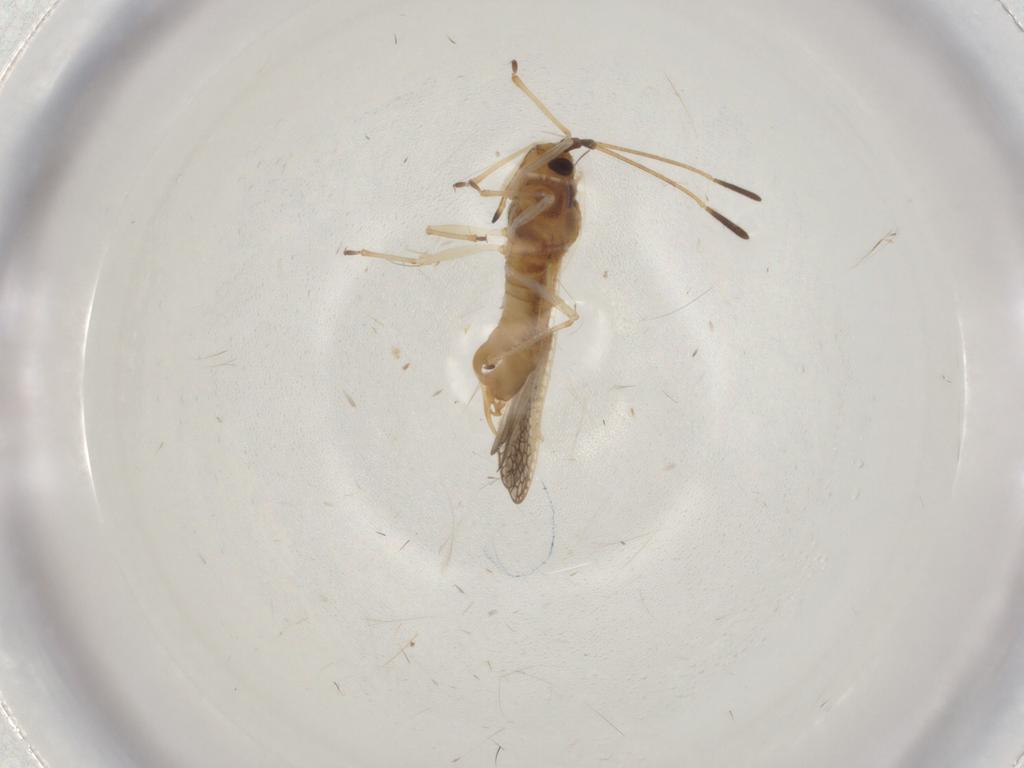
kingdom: Animalia
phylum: Arthropoda
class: Insecta
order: Hemiptera
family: Tingidae
